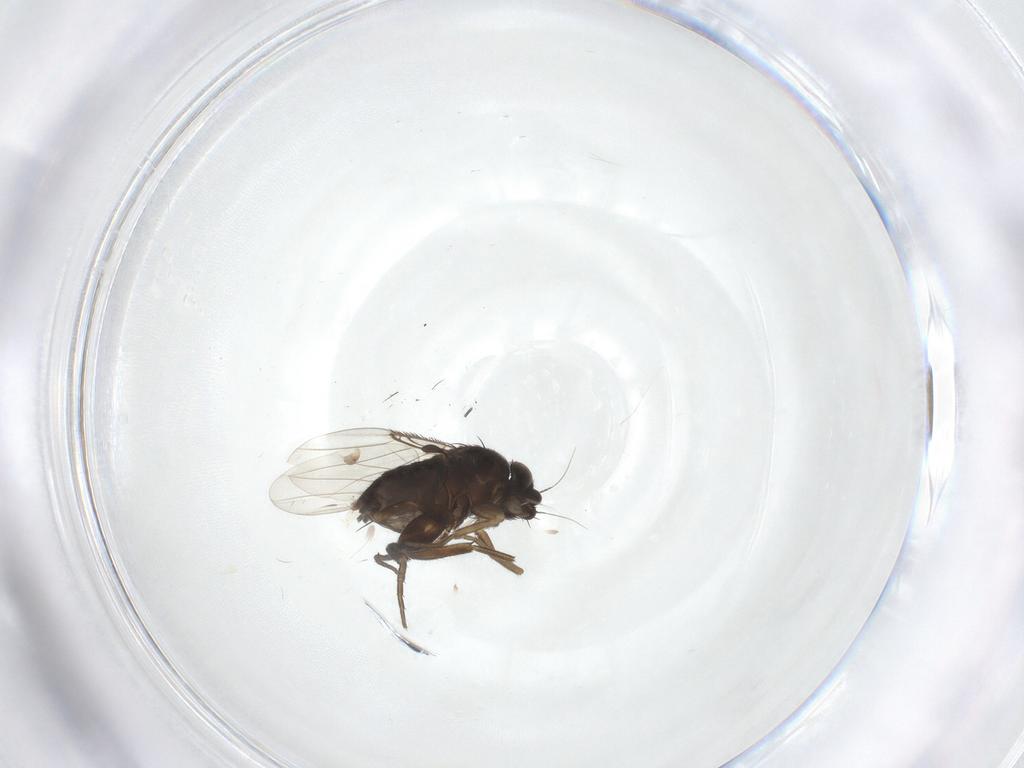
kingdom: Animalia
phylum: Arthropoda
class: Insecta
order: Diptera
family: Phoridae
